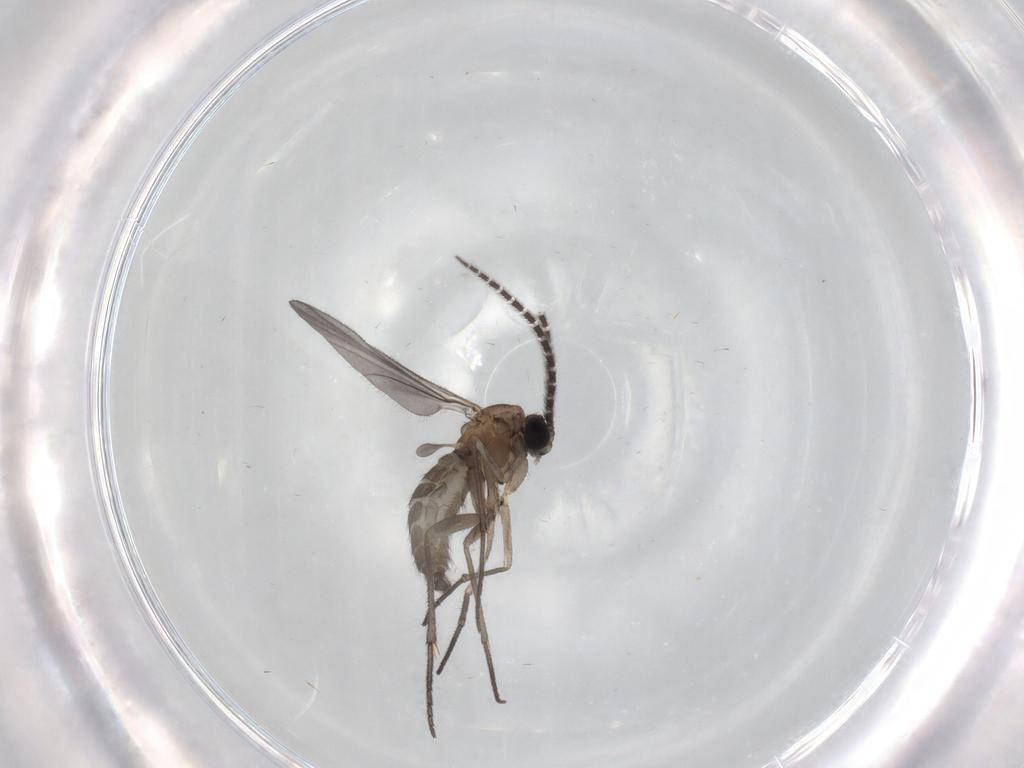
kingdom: Animalia
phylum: Arthropoda
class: Insecta
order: Diptera
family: Sciaridae
